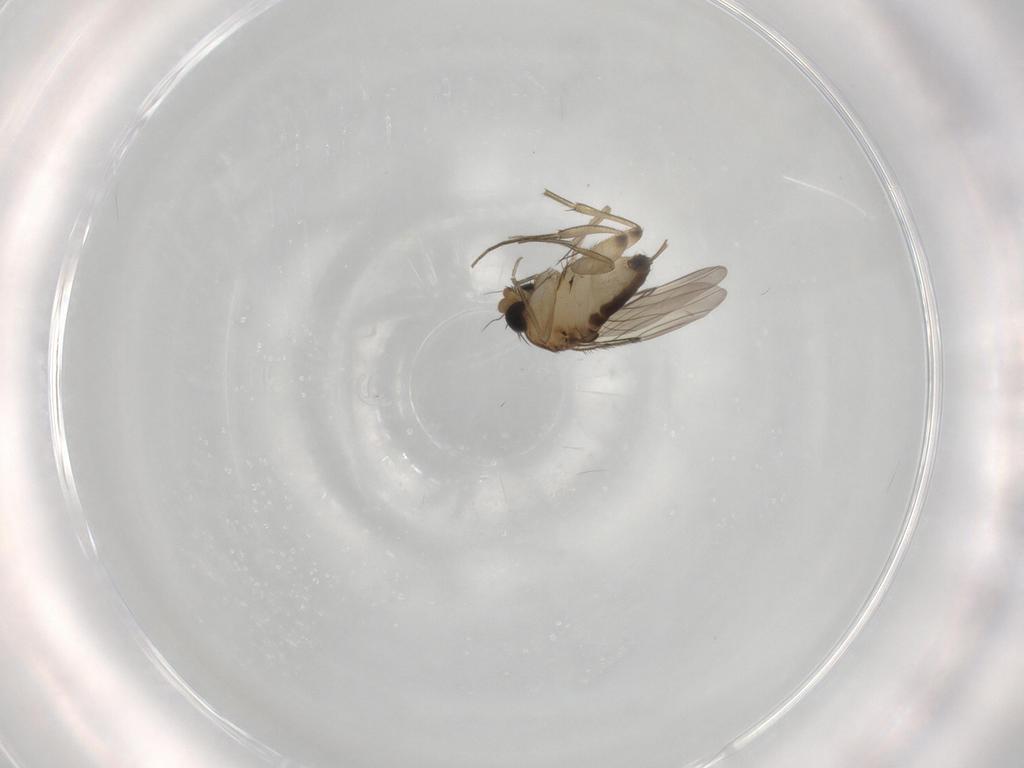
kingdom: Animalia
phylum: Arthropoda
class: Insecta
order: Diptera
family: Phoridae
